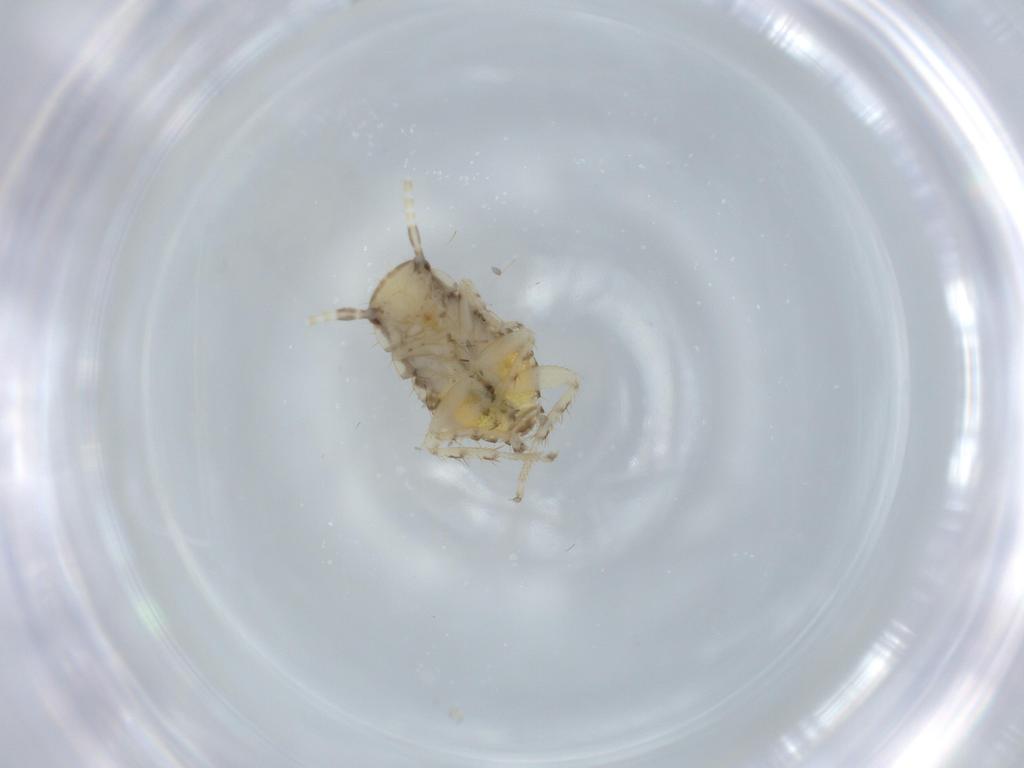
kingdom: Animalia
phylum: Arthropoda
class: Insecta
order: Blattodea
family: Ectobiidae
